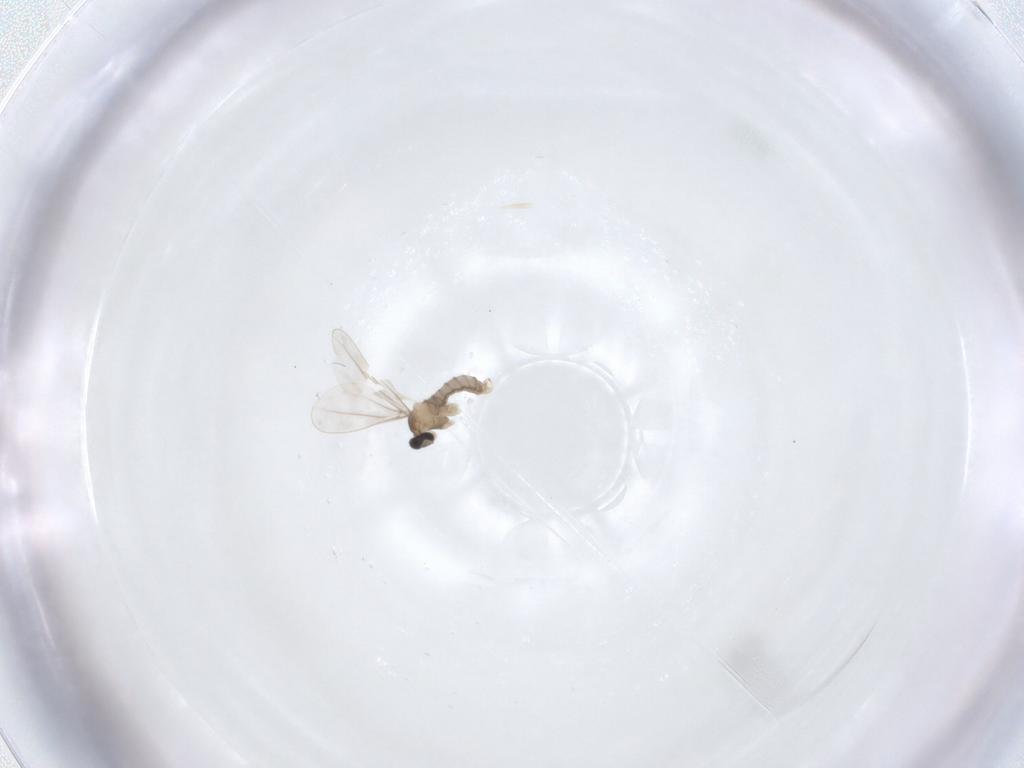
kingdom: Animalia
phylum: Arthropoda
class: Insecta
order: Diptera
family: Cecidomyiidae
